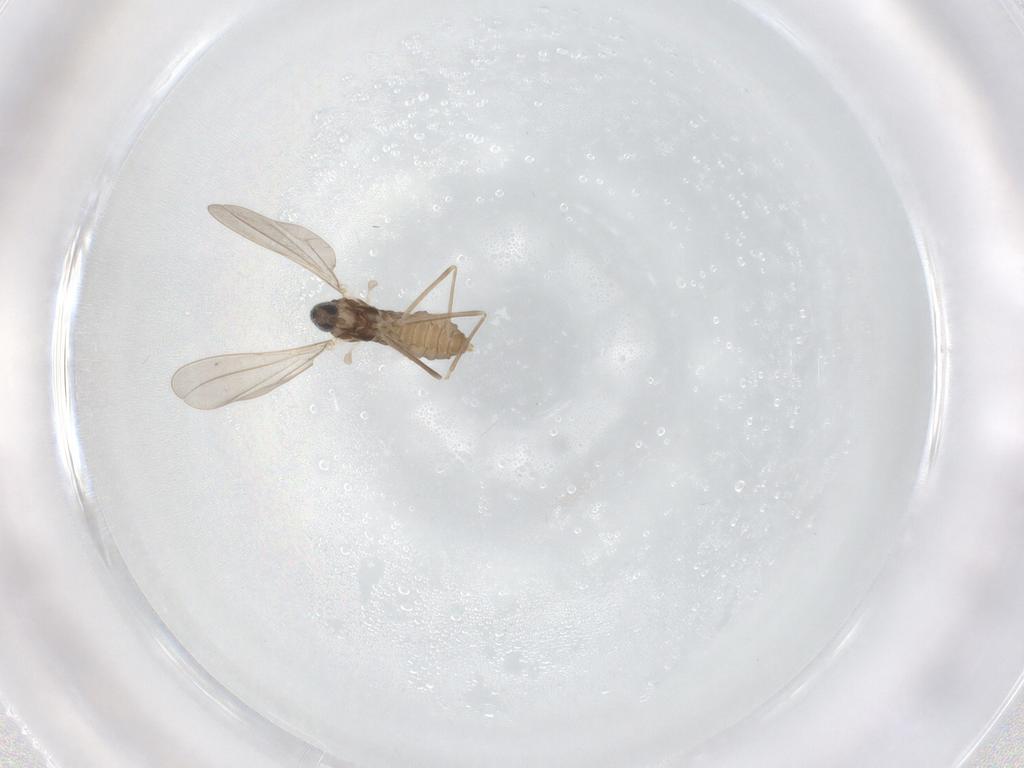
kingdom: Animalia
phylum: Arthropoda
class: Insecta
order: Diptera
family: Cecidomyiidae
